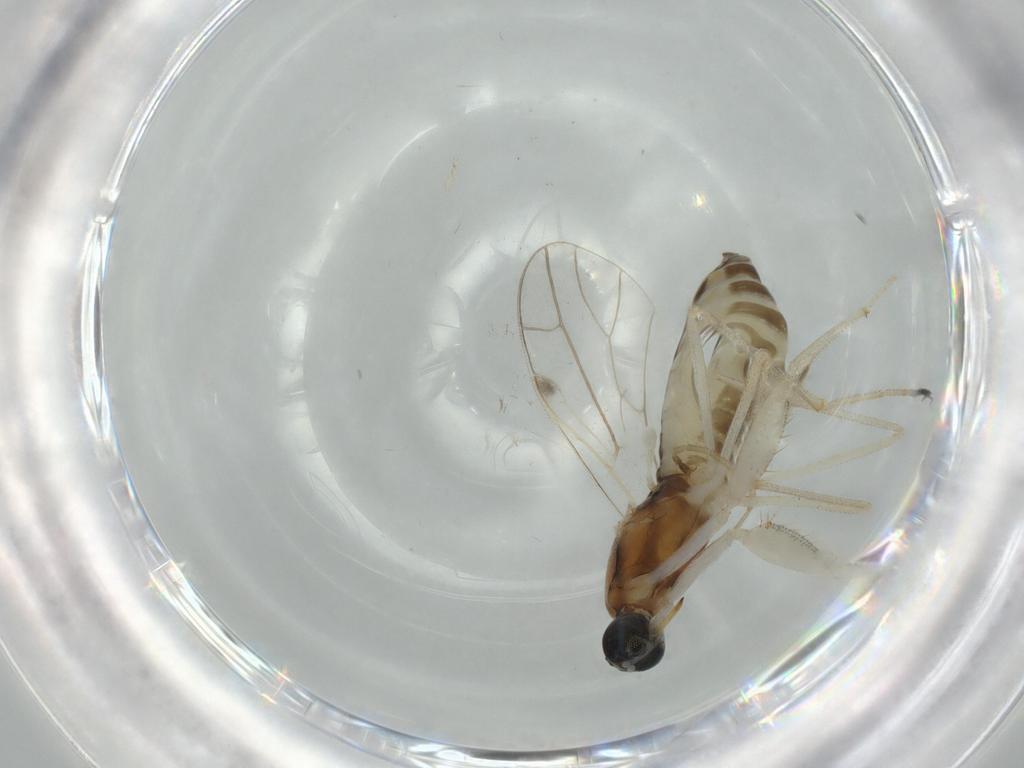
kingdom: Animalia
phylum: Arthropoda
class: Insecta
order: Diptera
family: Empididae
